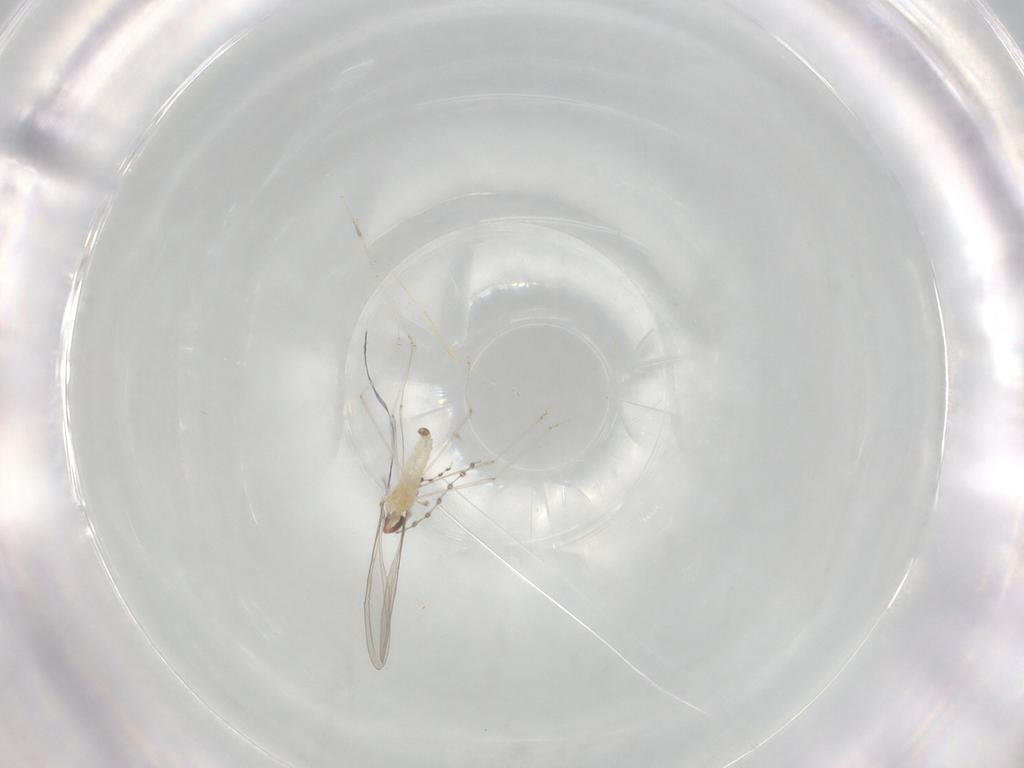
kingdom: Animalia
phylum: Arthropoda
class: Insecta
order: Diptera
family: Cecidomyiidae
